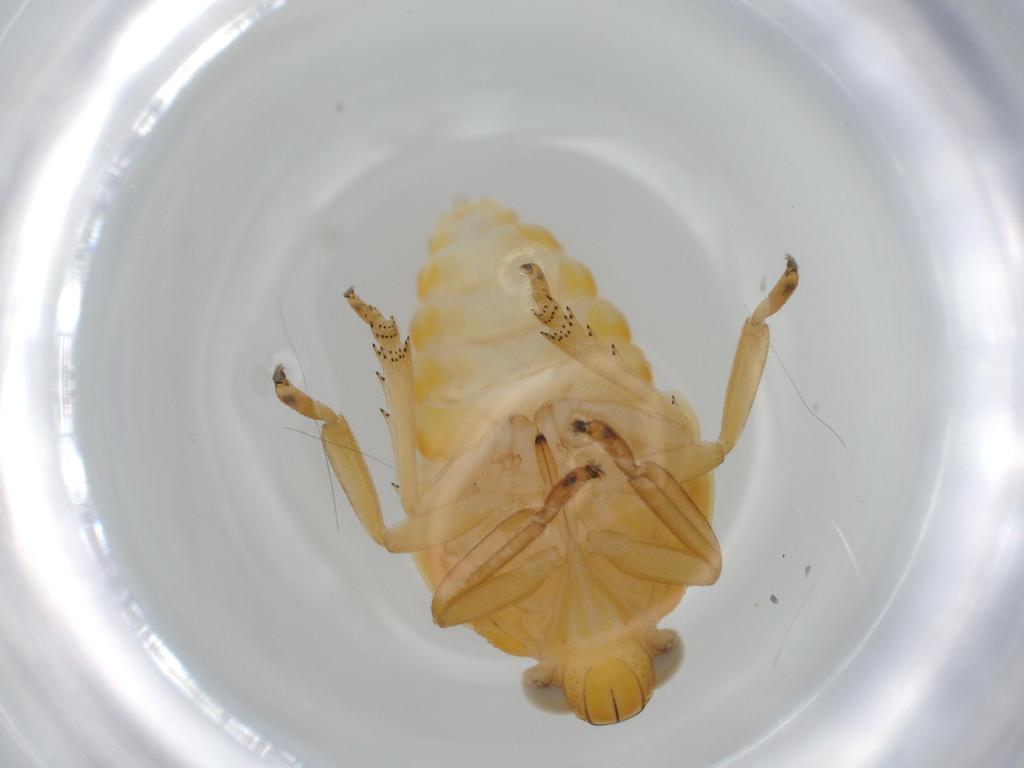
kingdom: Animalia
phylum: Arthropoda
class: Insecta
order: Hemiptera
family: Issidae
